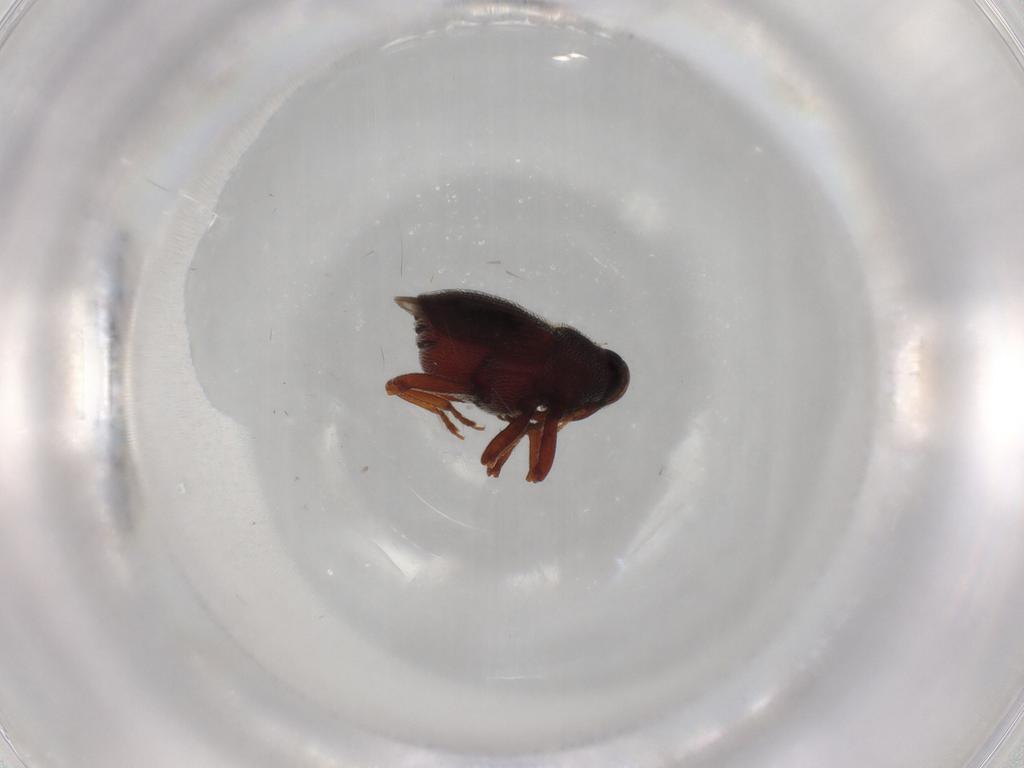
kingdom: Animalia
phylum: Arthropoda
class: Insecta
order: Coleoptera
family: Curculionidae
